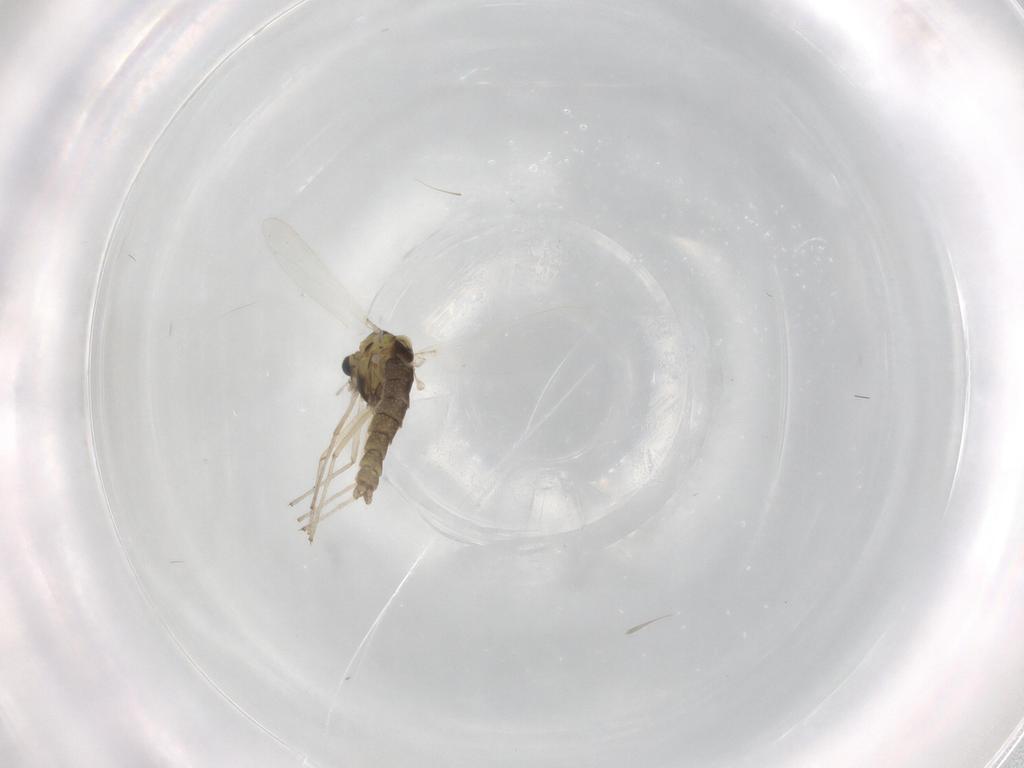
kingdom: Animalia
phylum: Arthropoda
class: Insecta
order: Diptera
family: Chironomidae
